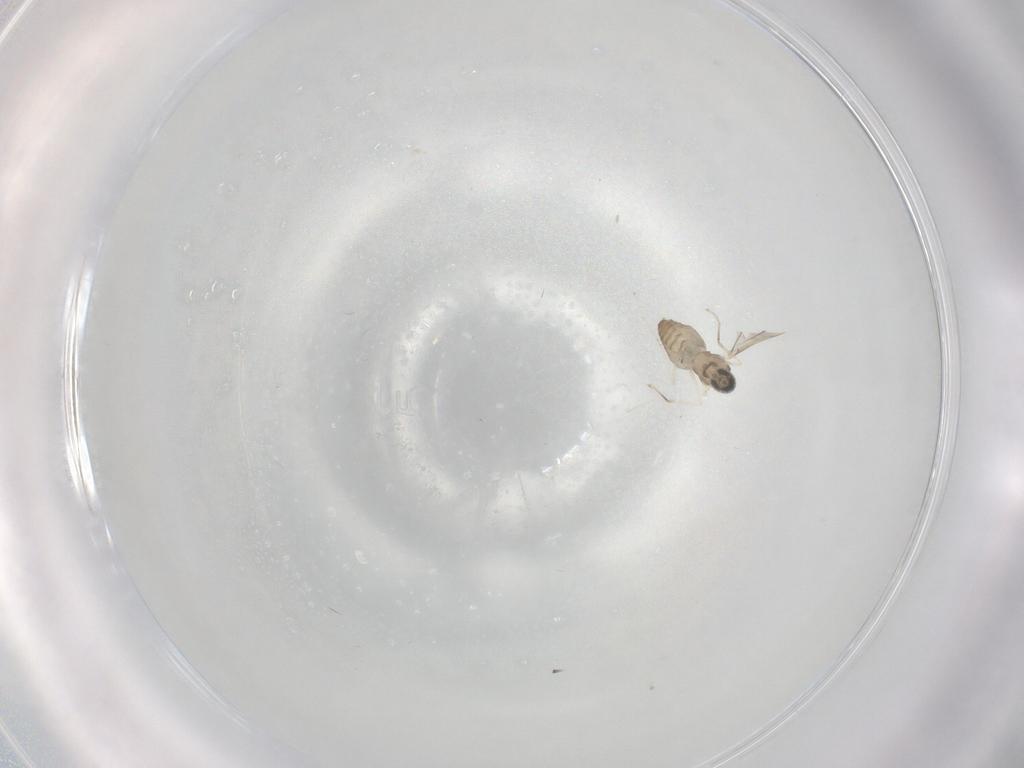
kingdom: Animalia
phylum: Arthropoda
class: Insecta
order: Diptera
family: Cecidomyiidae
